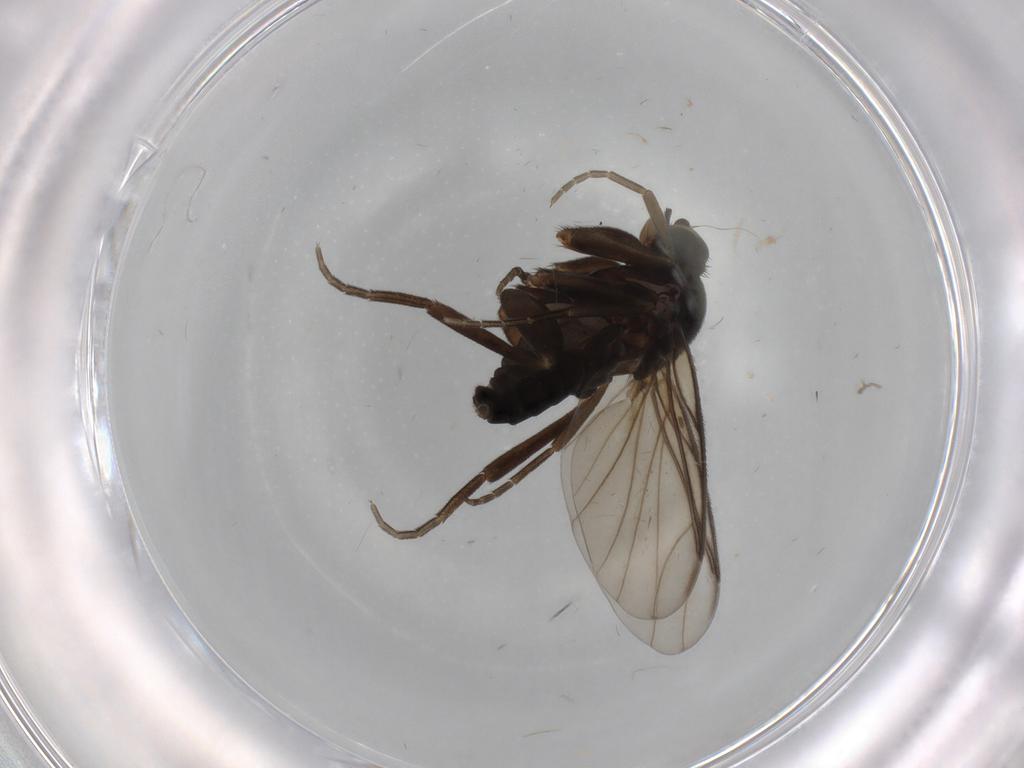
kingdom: Animalia
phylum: Arthropoda
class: Insecta
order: Diptera
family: Phoridae
